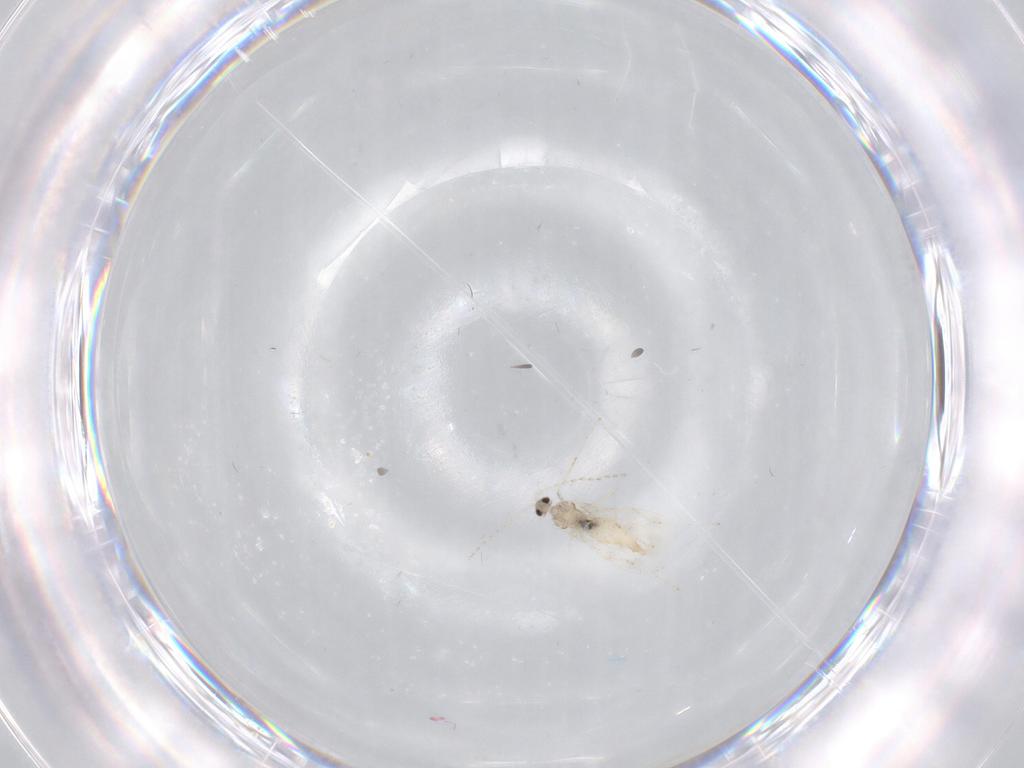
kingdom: Animalia
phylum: Arthropoda
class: Insecta
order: Diptera
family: Cecidomyiidae
